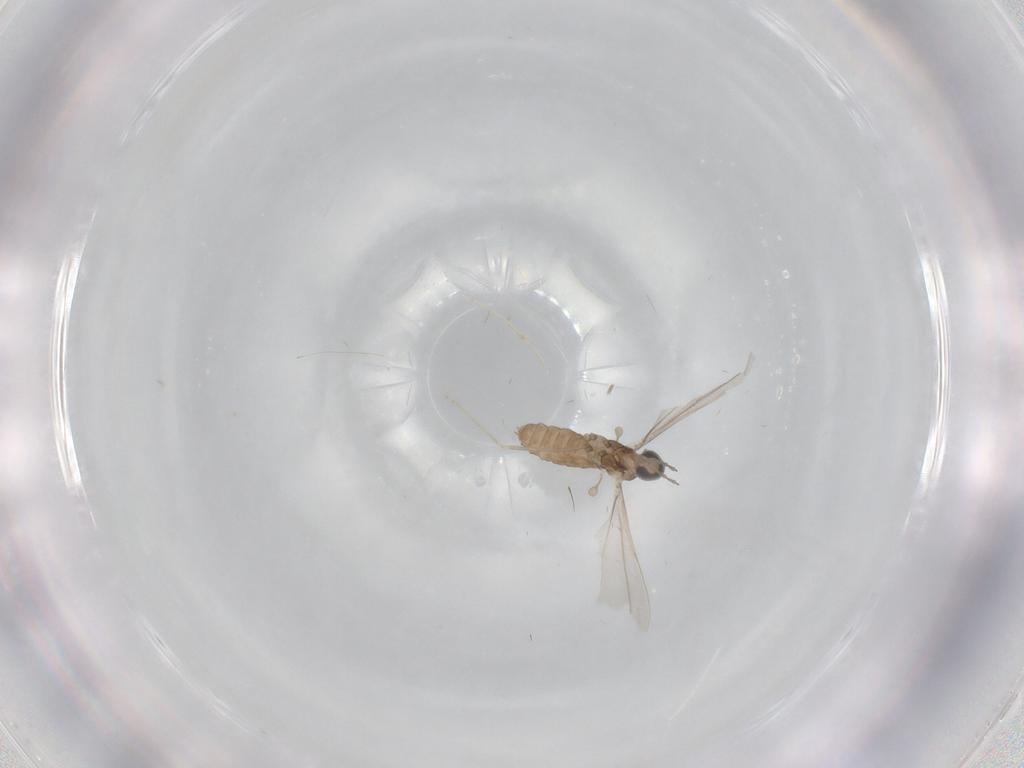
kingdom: Animalia
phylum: Arthropoda
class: Insecta
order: Diptera
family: Cecidomyiidae
